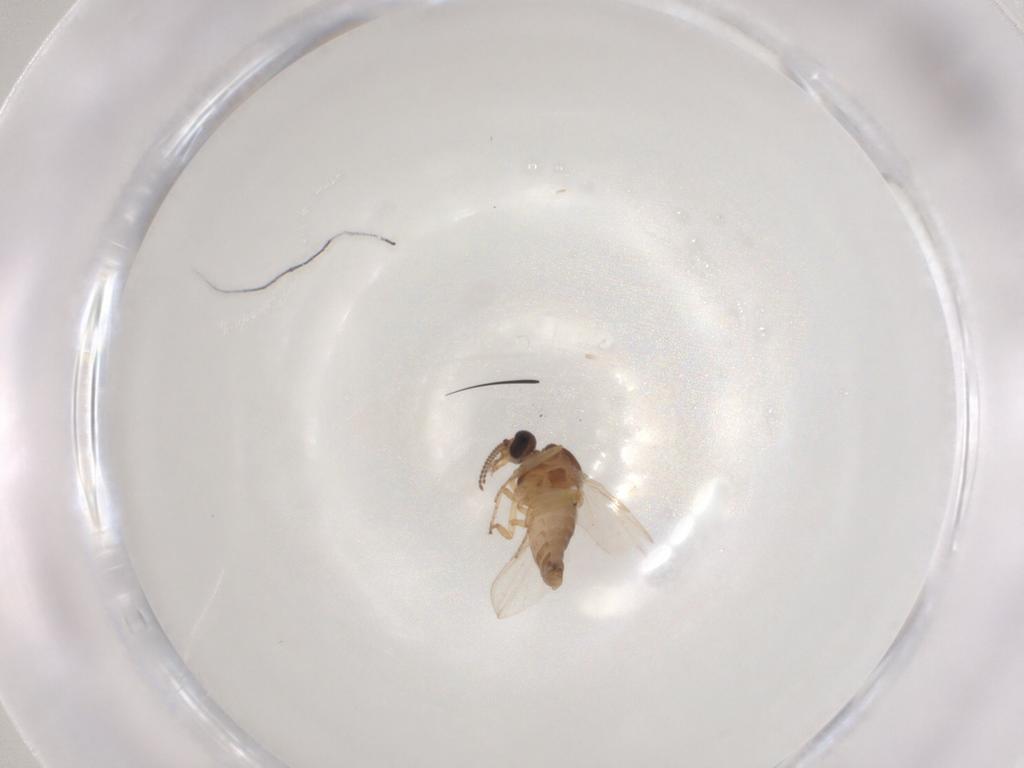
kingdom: Animalia
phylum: Arthropoda
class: Insecta
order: Diptera
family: Ceratopogonidae
